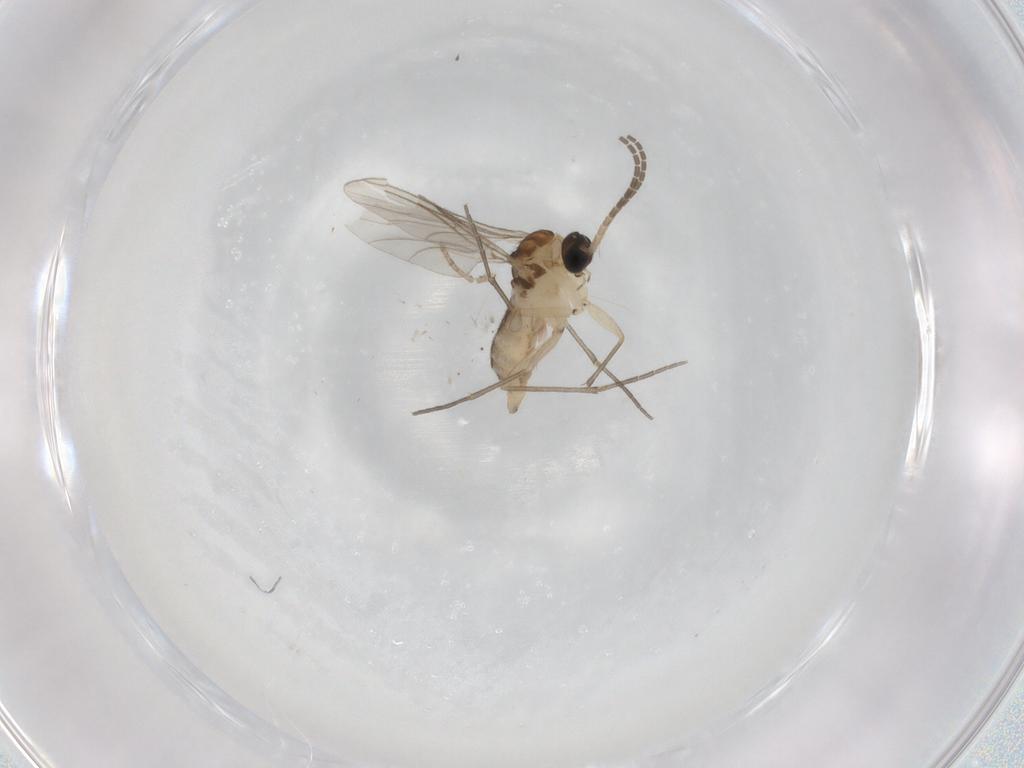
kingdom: Animalia
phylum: Arthropoda
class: Insecta
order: Diptera
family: Sciaridae
